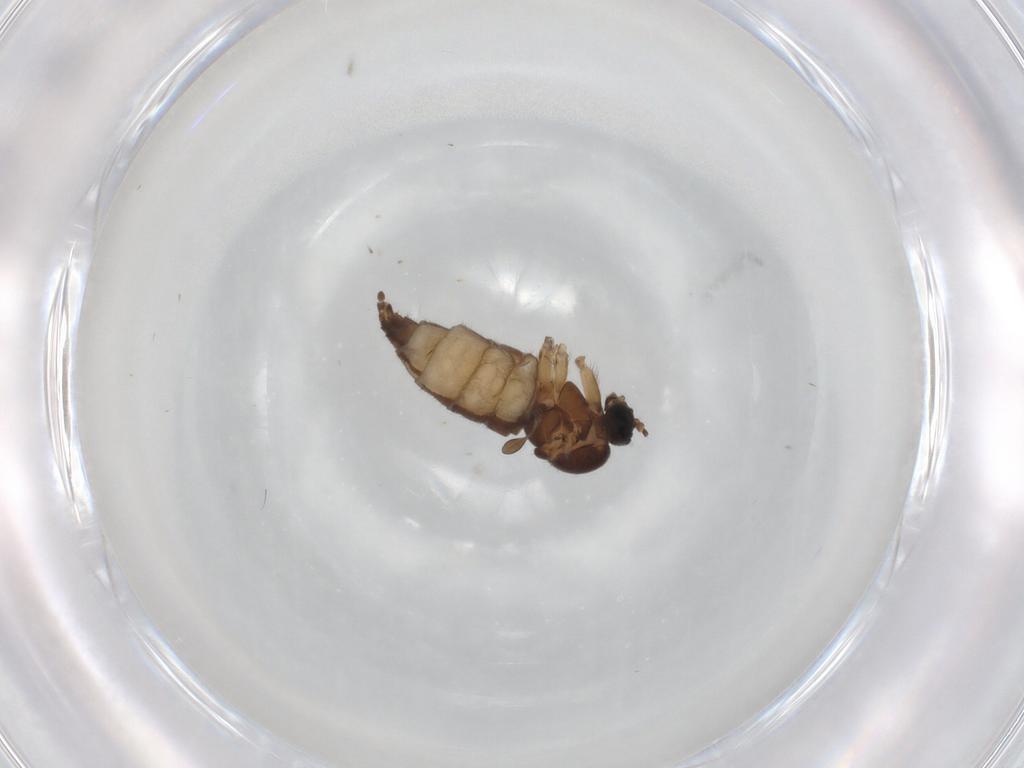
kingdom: Animalia
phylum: Arthropoda
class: Insecta
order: Diptera
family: Sciaridae
